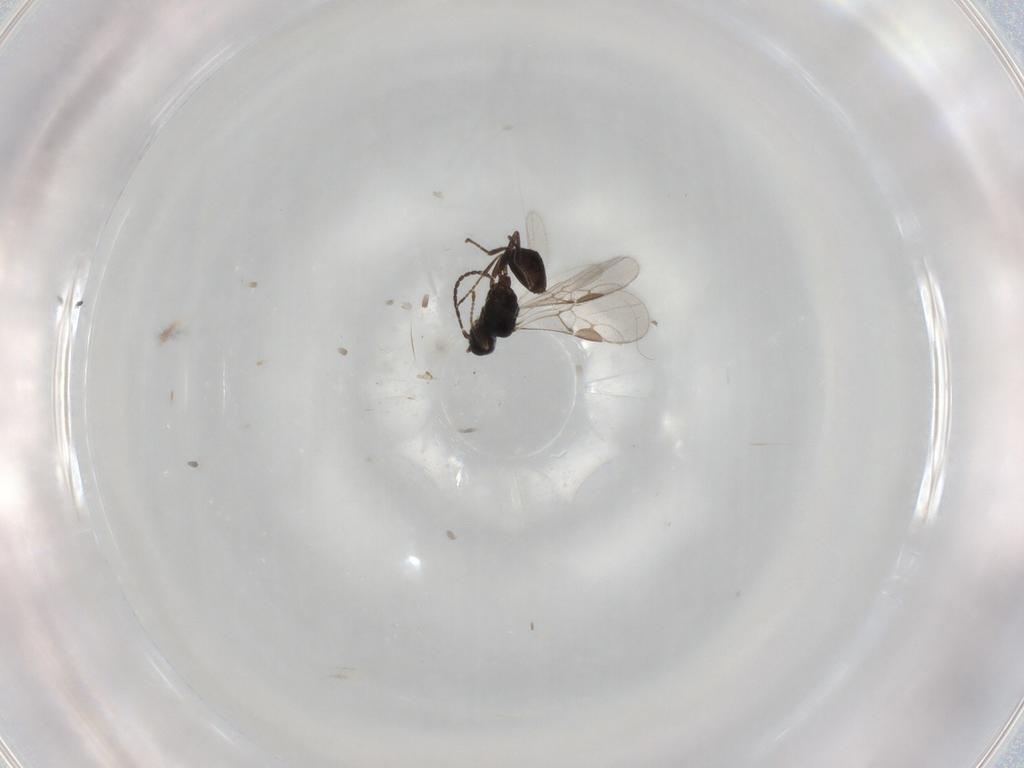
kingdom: Animalia
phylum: Arthropoda
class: Insecta
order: Hymenoptera
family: Braconidae
